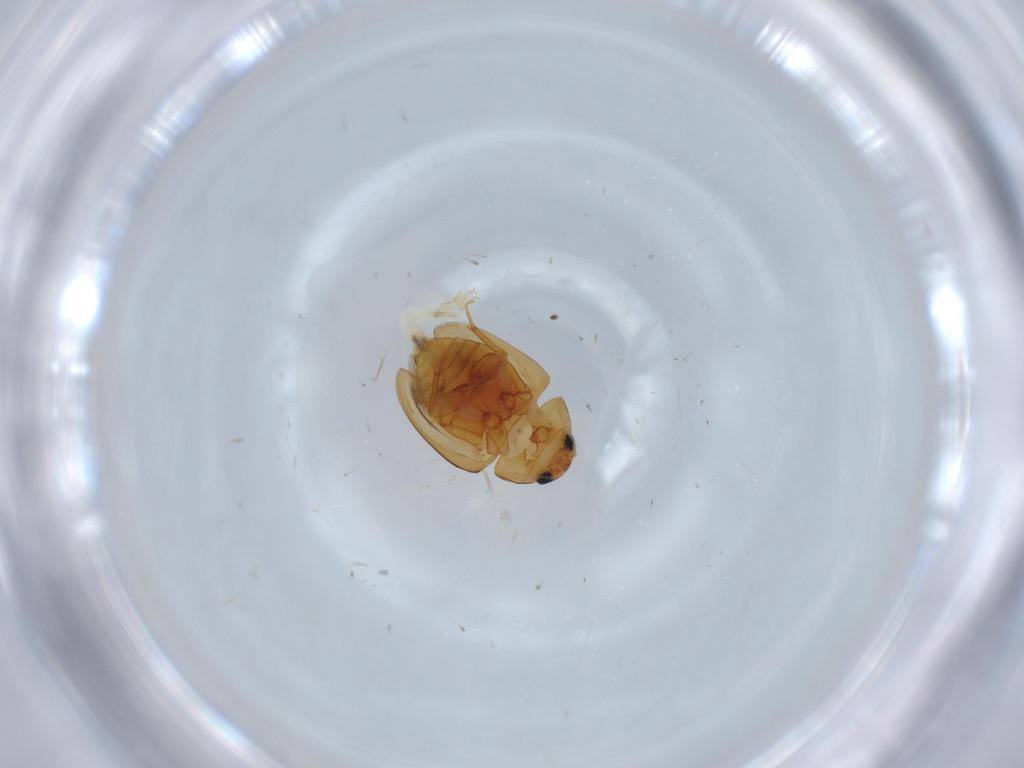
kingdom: Animalia
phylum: Arthropoda
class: Insecta
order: Coleoptera
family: Phalacridae
